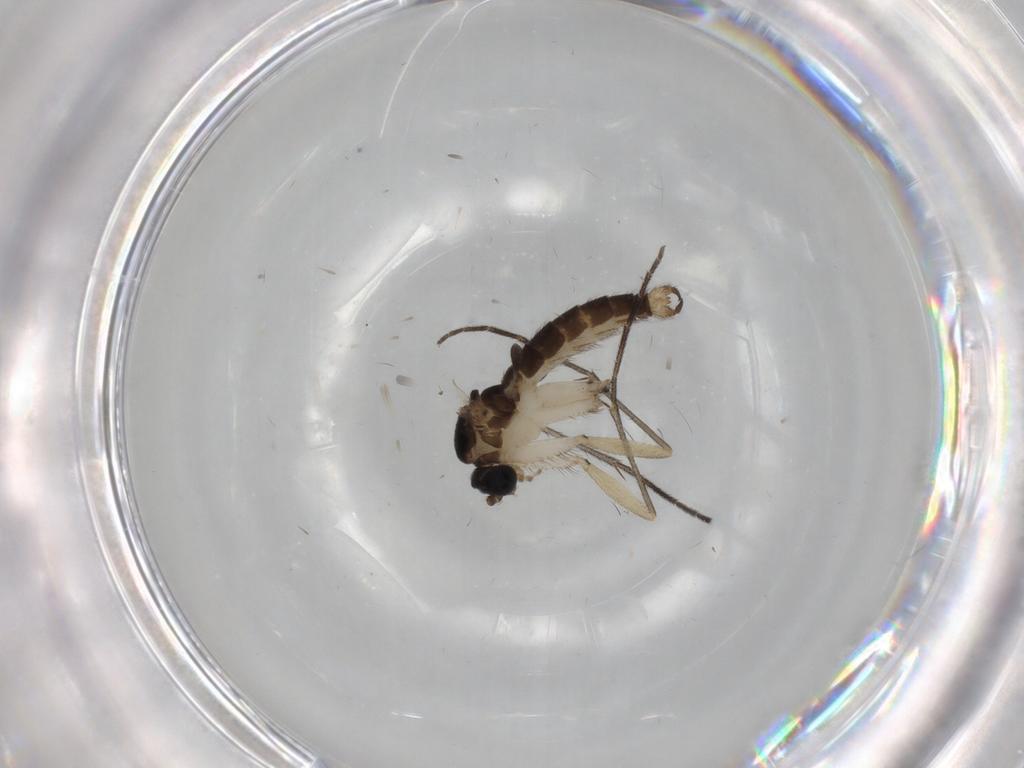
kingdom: Animalia
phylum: Arthropoda
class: Insecta
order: Diptera
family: Sciaridae
